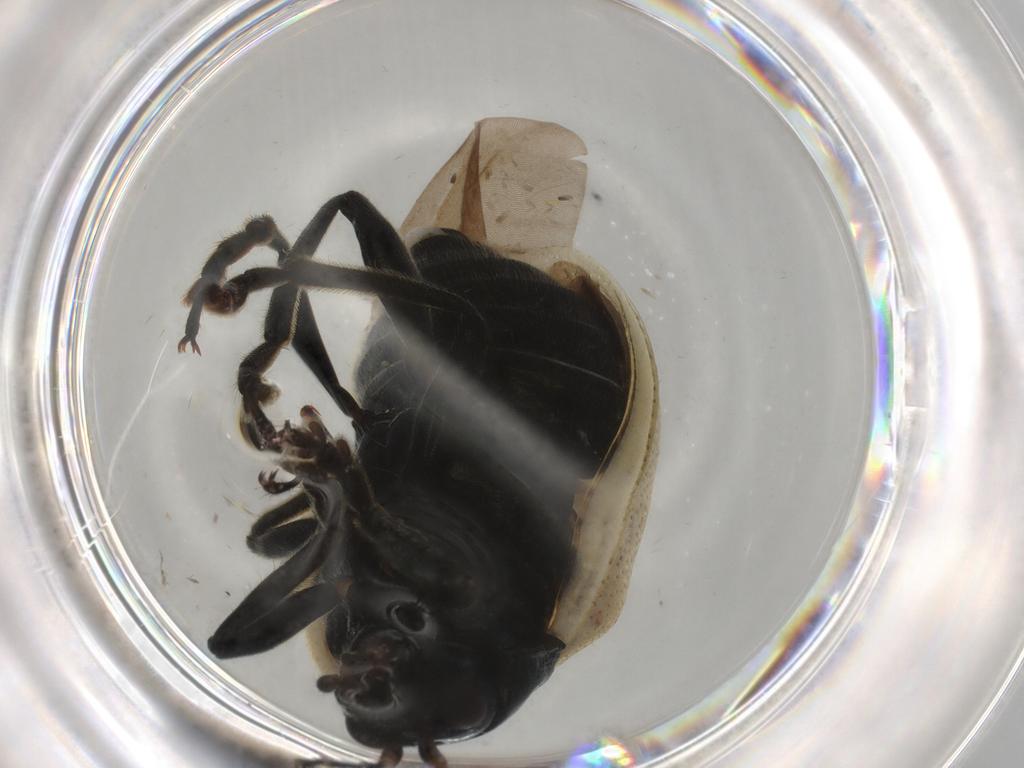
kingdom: Animalia
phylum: Arthropoda
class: Insecta
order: Coleoptera
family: Chrysomelidae
